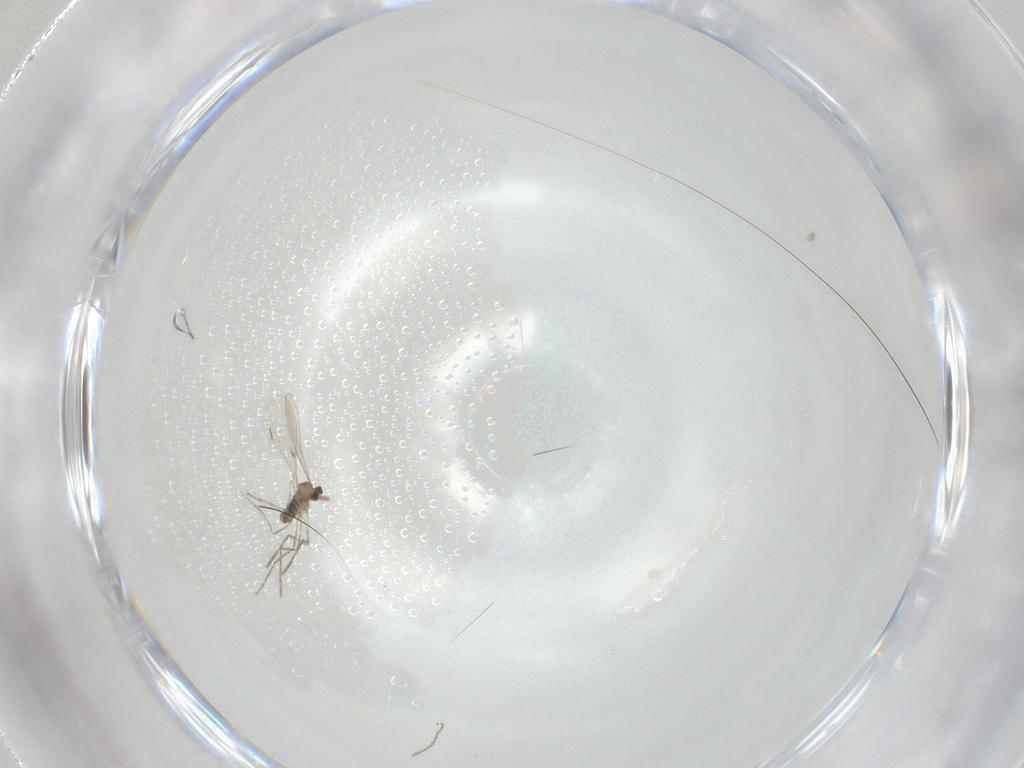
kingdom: Animalia
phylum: Arthropoda
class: Insecta
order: Diptera
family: Cecidomyiidae
